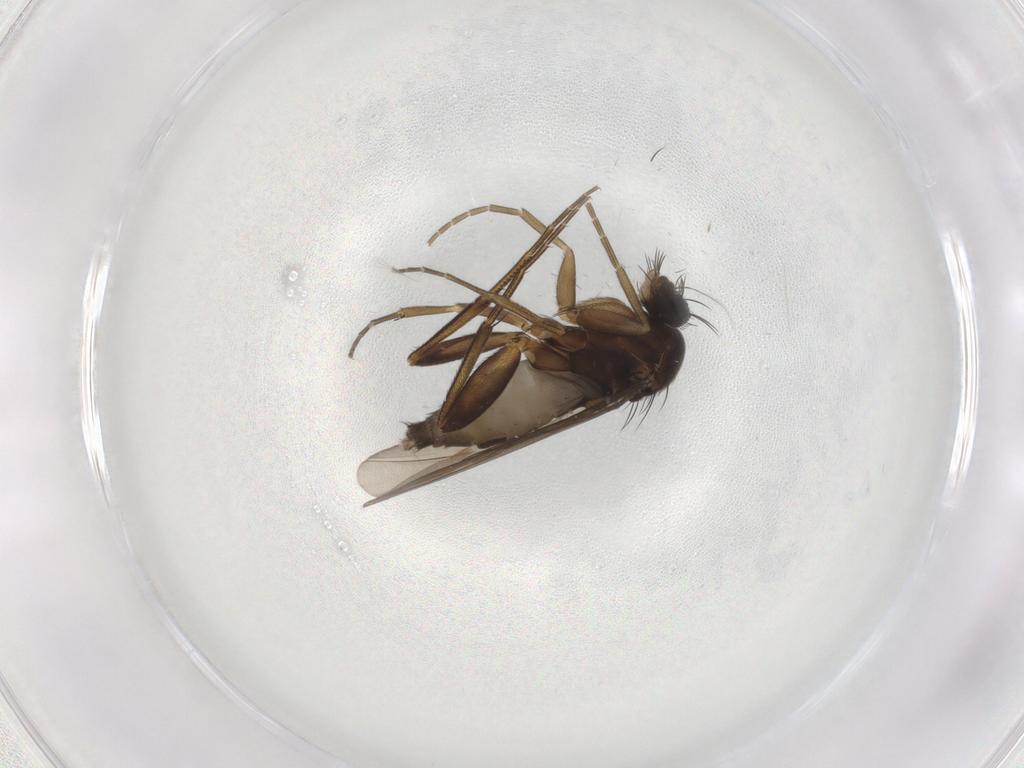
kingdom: Animalia
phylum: Arthropoda
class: Insecta
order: Diptera
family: Phoridae
